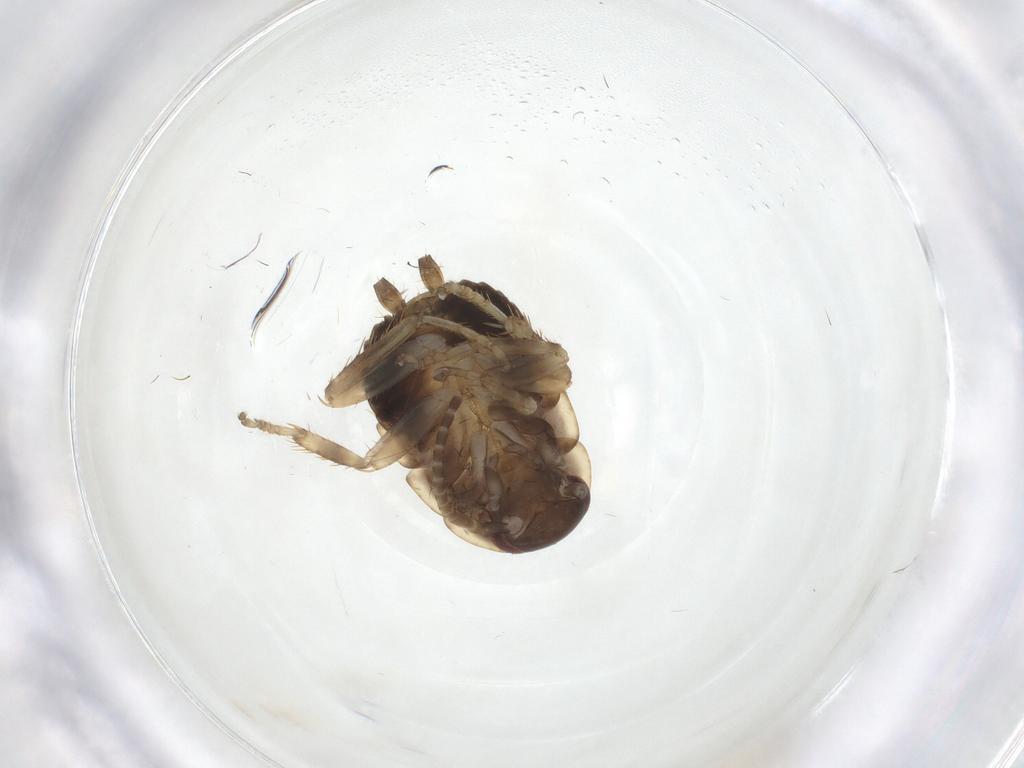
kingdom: Animalia
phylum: Arthropoda
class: Insecta
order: Blattodea
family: Ectobiidae
